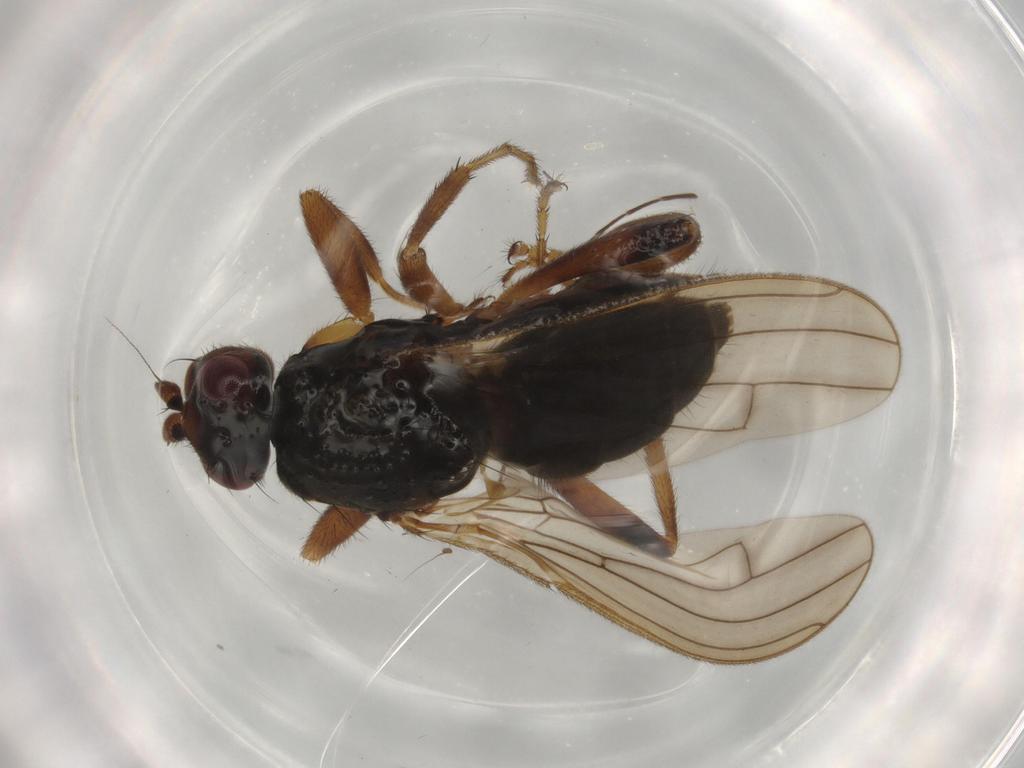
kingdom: Animalia
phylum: Arthropoda
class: Insecta
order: Diptera
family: Sphaeroceridae
